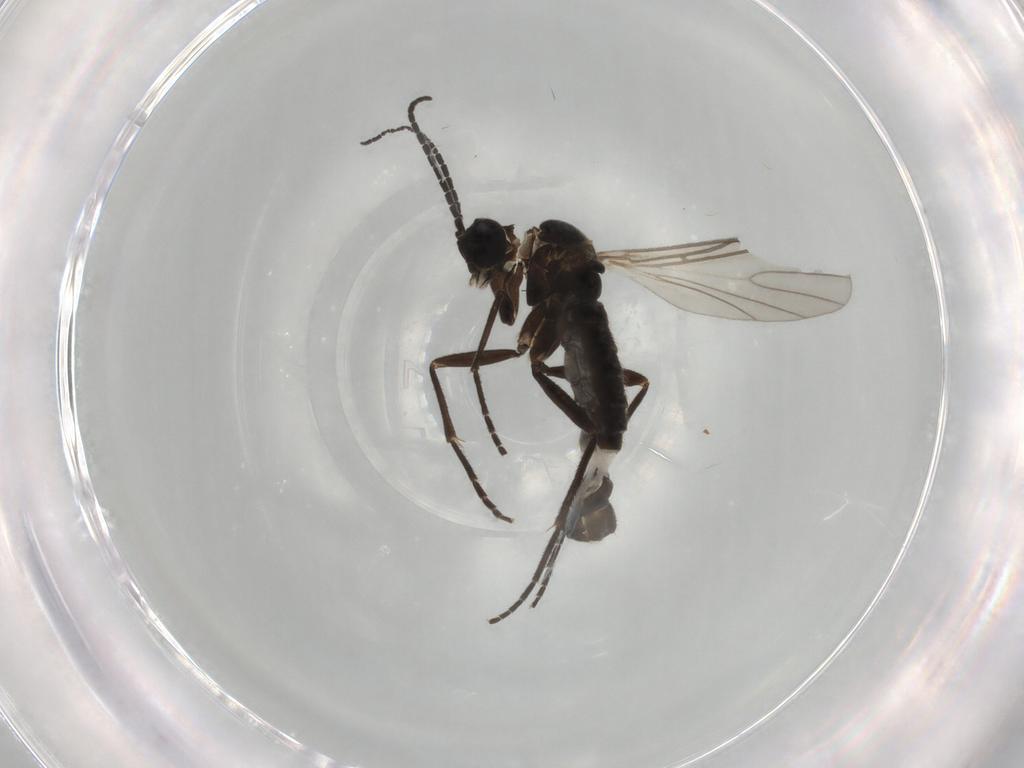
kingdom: Animalia
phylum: Arthropoda
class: Insecta
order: Diptera
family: Sciaridae
